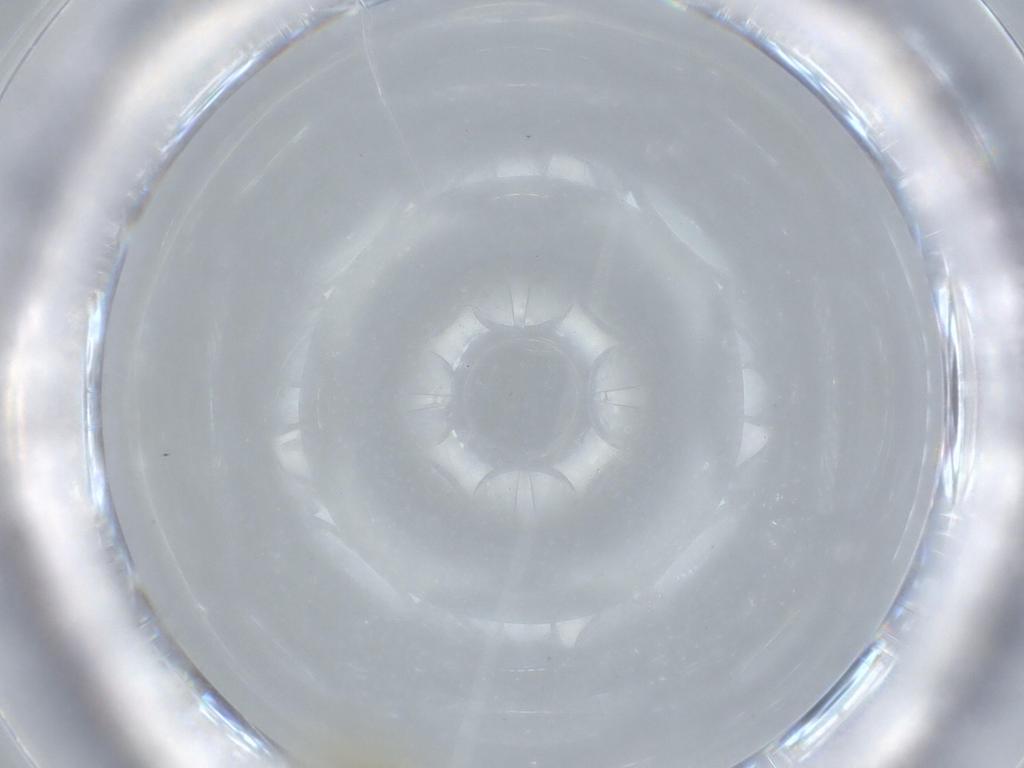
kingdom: Animalia
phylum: Arthropoda
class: Insecta
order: Neuroptera
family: Coniopterygidae
